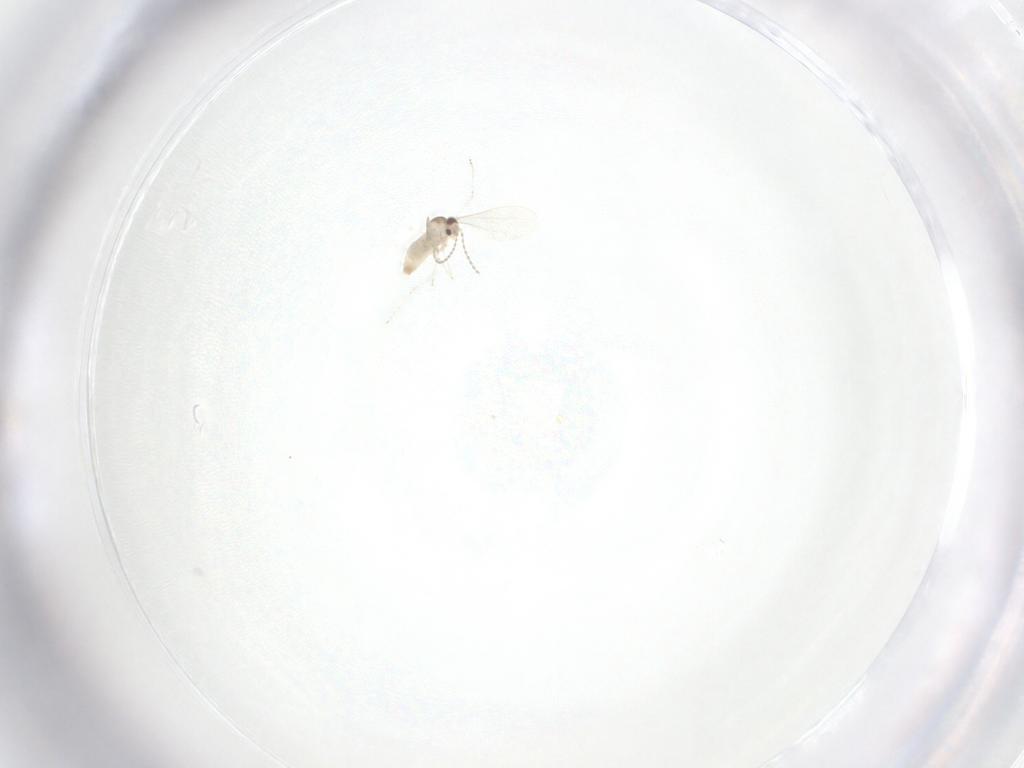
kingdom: Animalia
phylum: Arthropoda
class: Insecta
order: Diptera
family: Cecidomyiidae
